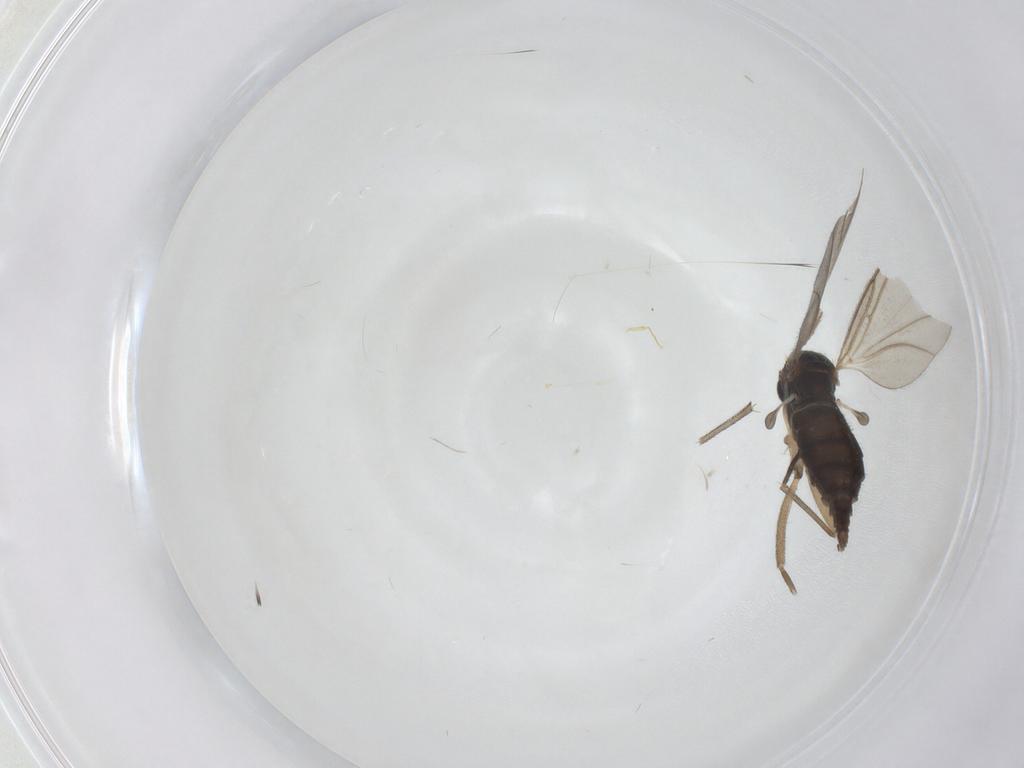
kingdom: Animalia
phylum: Arthropoda
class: Insecta
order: Diptera
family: Sciaridae
